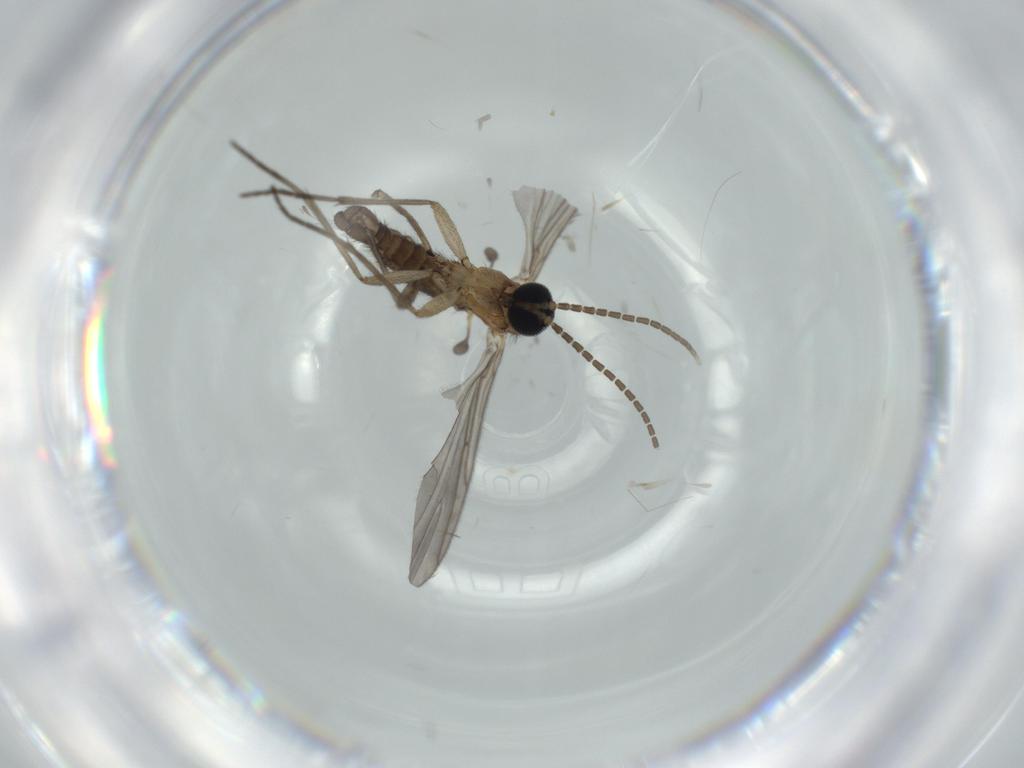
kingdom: Animalia
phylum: Arthropoda
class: Insecta
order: Diptera
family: Sciaridae
